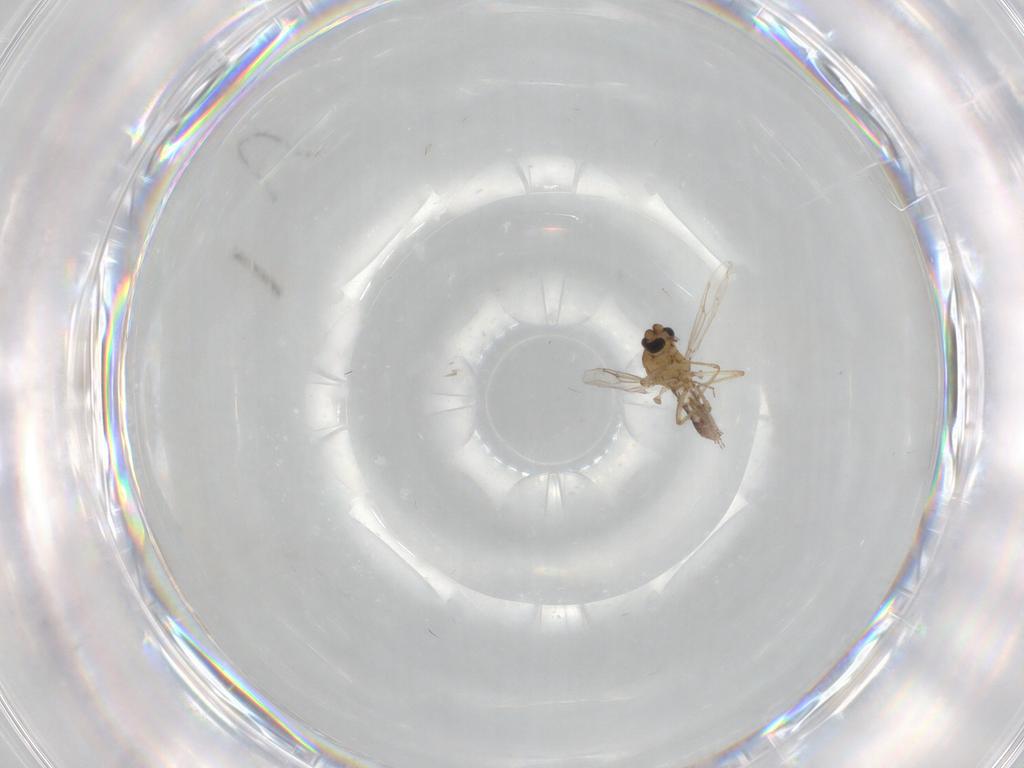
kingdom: Animalia
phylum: Arthropoda
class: Insecta
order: Diptera
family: Ceratopogonidae
